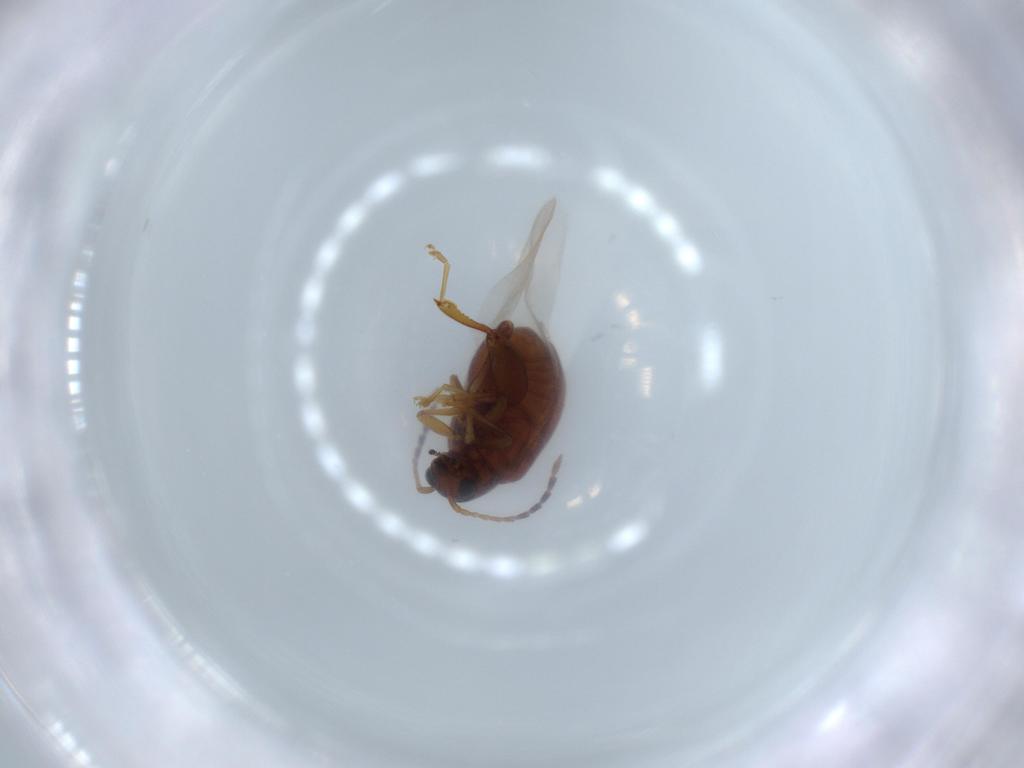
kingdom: Animalia
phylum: Arthropoda
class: Insecta
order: Coleoptera
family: Chrysomelidae
